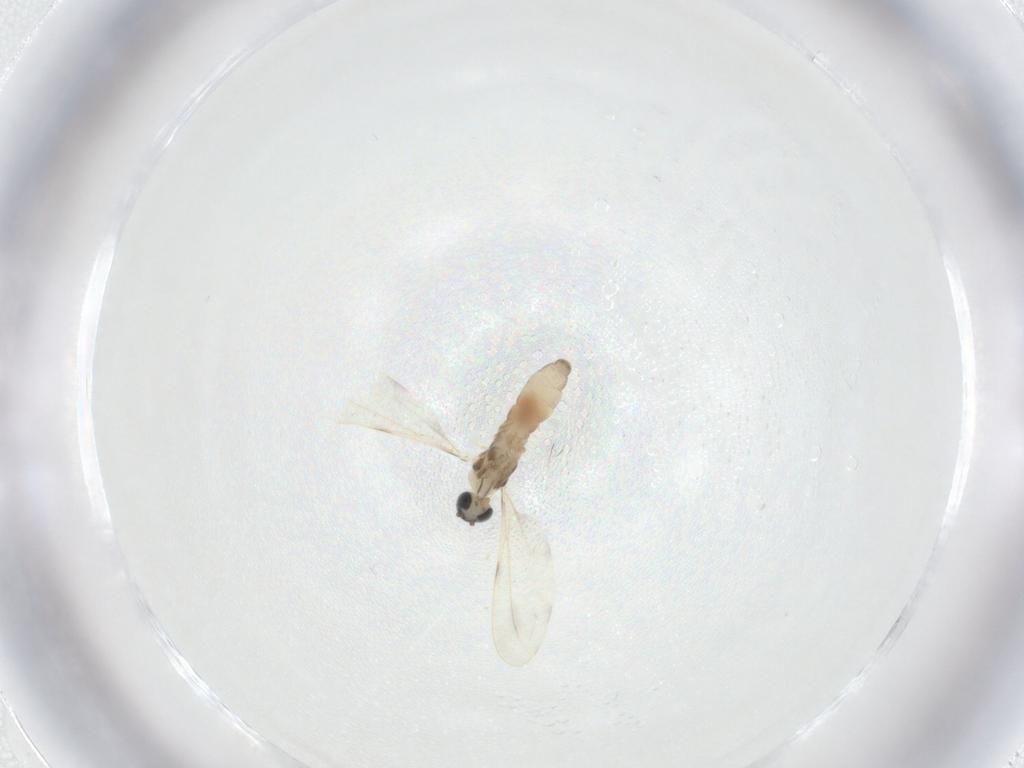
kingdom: Animalia
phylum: Arthropoda
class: Insecta
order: Diptera
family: Cecidomyiidae
